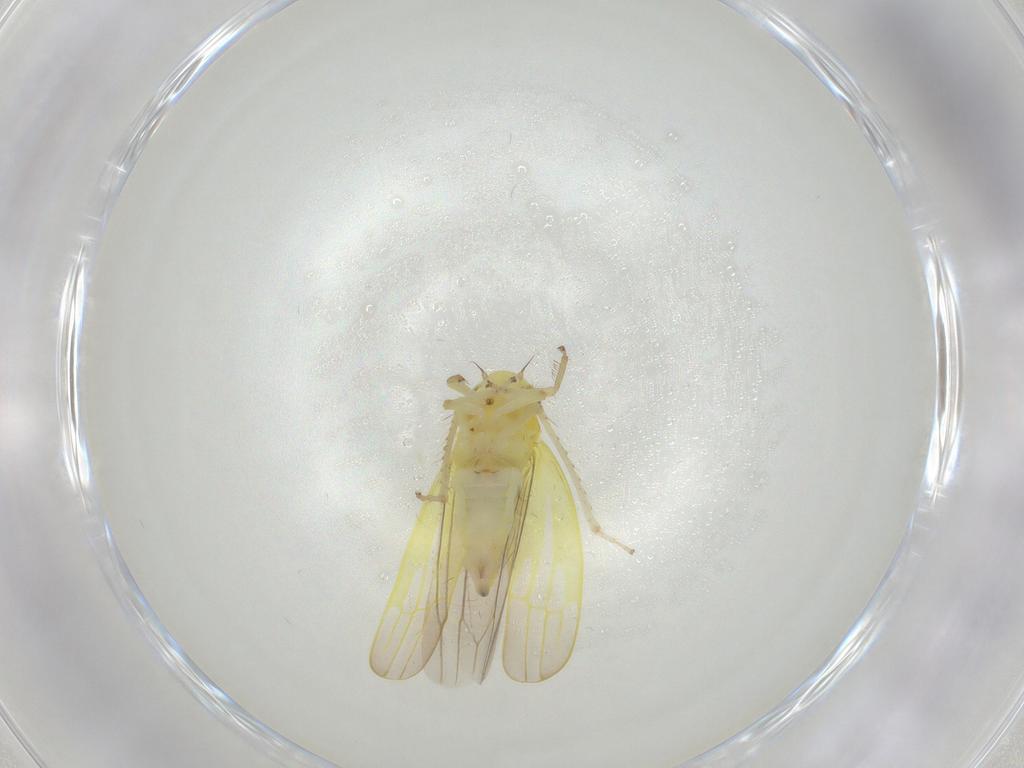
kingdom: Animalia
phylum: Arthropoda
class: Insecta
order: Hemiptera
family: Cicadellidae
